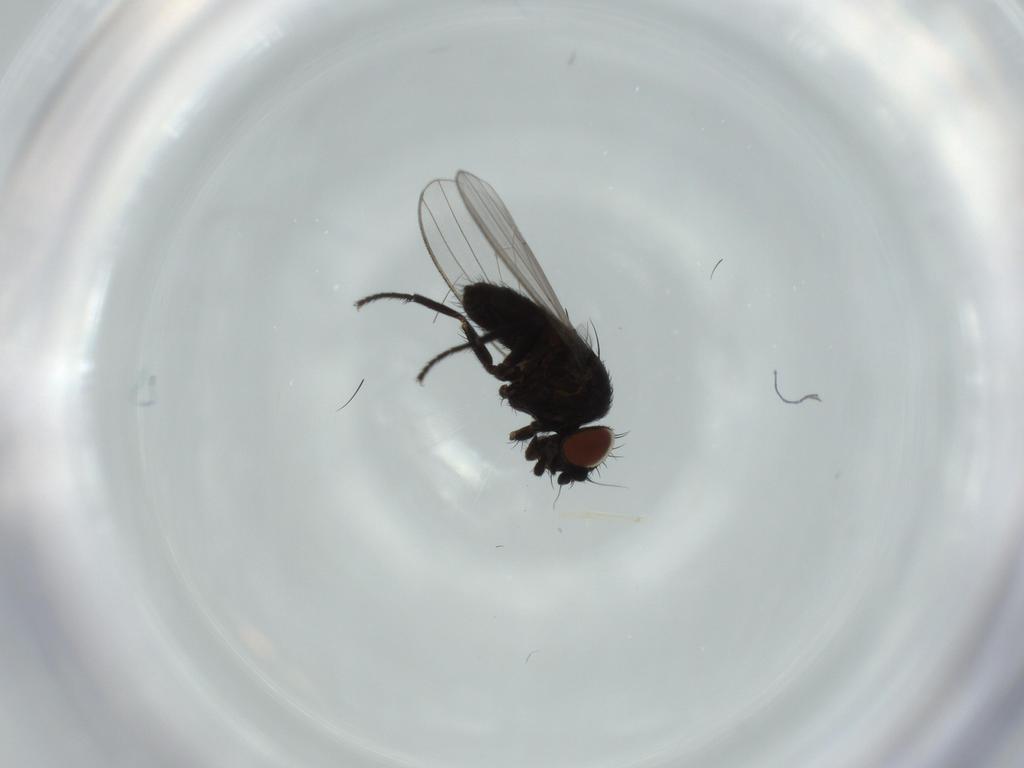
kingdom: Animalia
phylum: Arthropoda
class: Insecta
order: Diptera
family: Milichiidae
